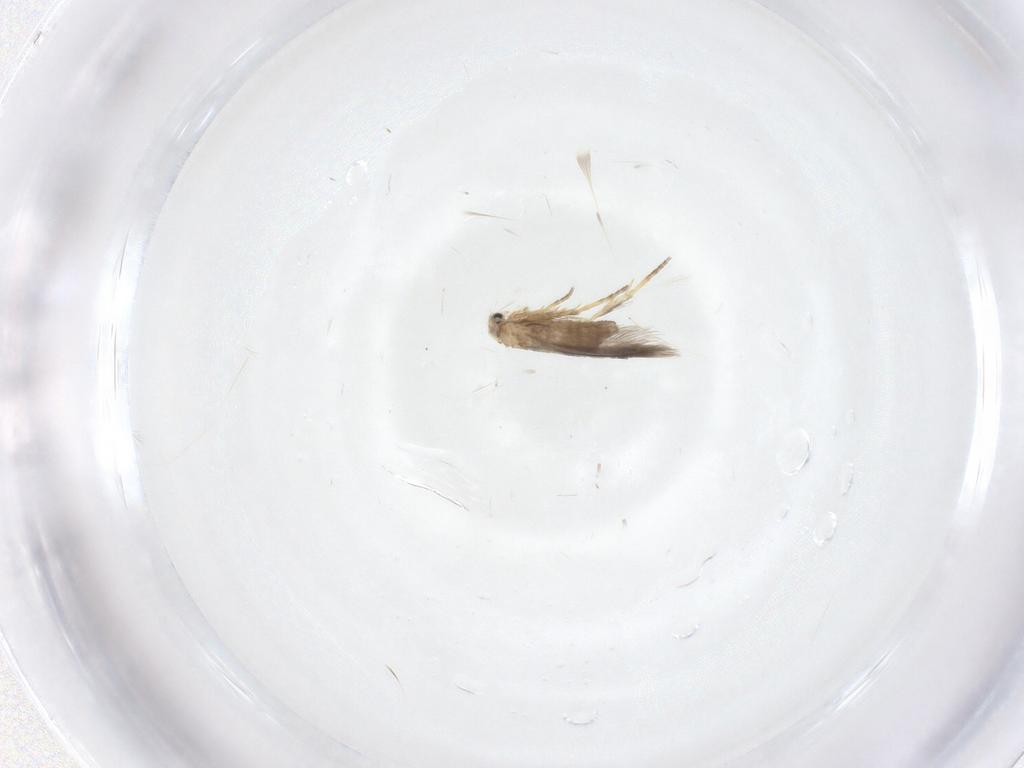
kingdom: Animalia
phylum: Arthropoda
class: Insecta
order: Lepidoptera
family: Nepticulidae
